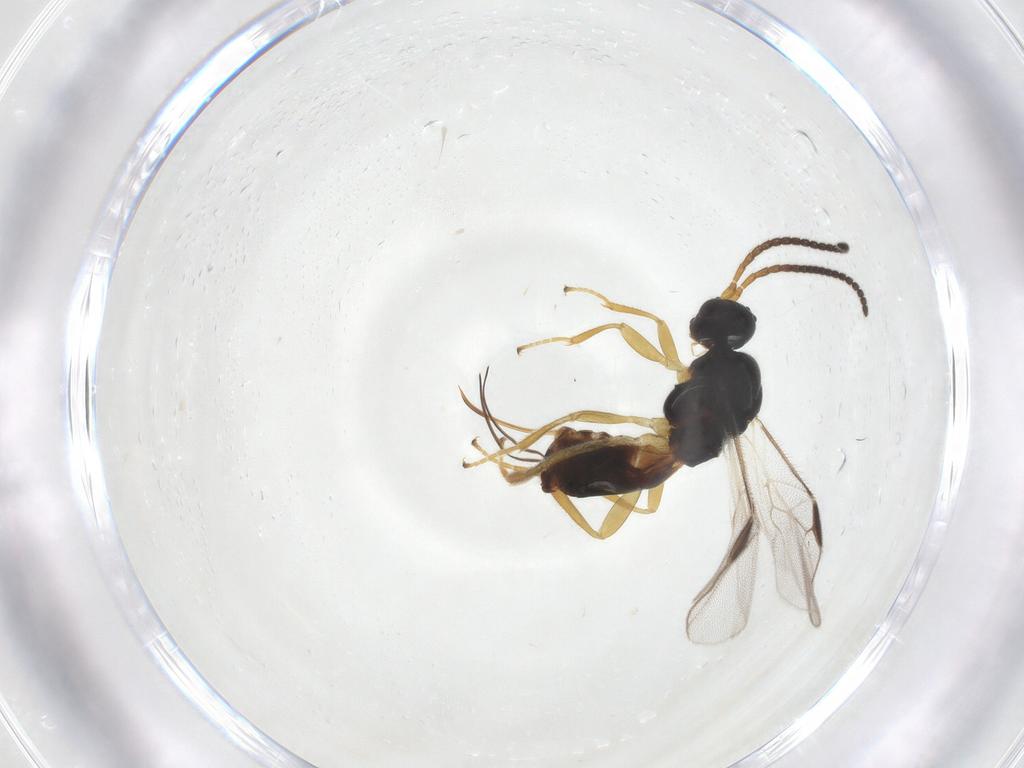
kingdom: Animalia
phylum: Arthropoda
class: Insecta
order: Hymenoptera
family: Braconidae
